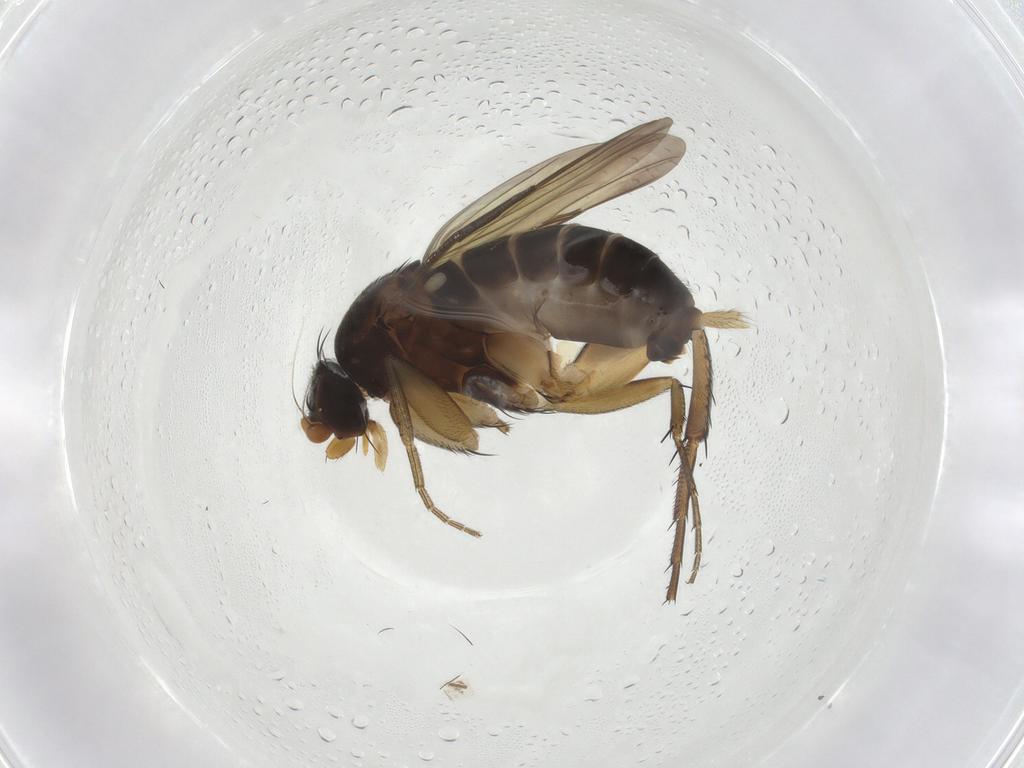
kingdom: Animalia
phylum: Arthropoda
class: Insecta
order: Diptera
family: Phoridae
